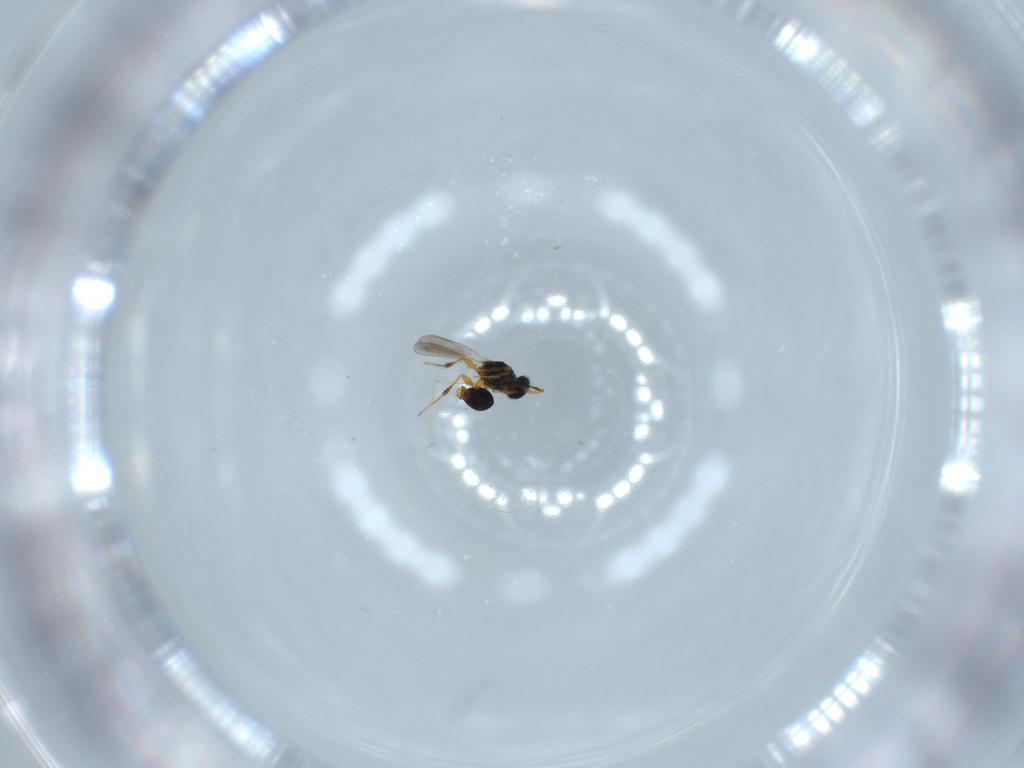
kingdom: Animalia
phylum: Arthropoda
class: Insecta
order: Hymenoptera
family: Platygastridae
